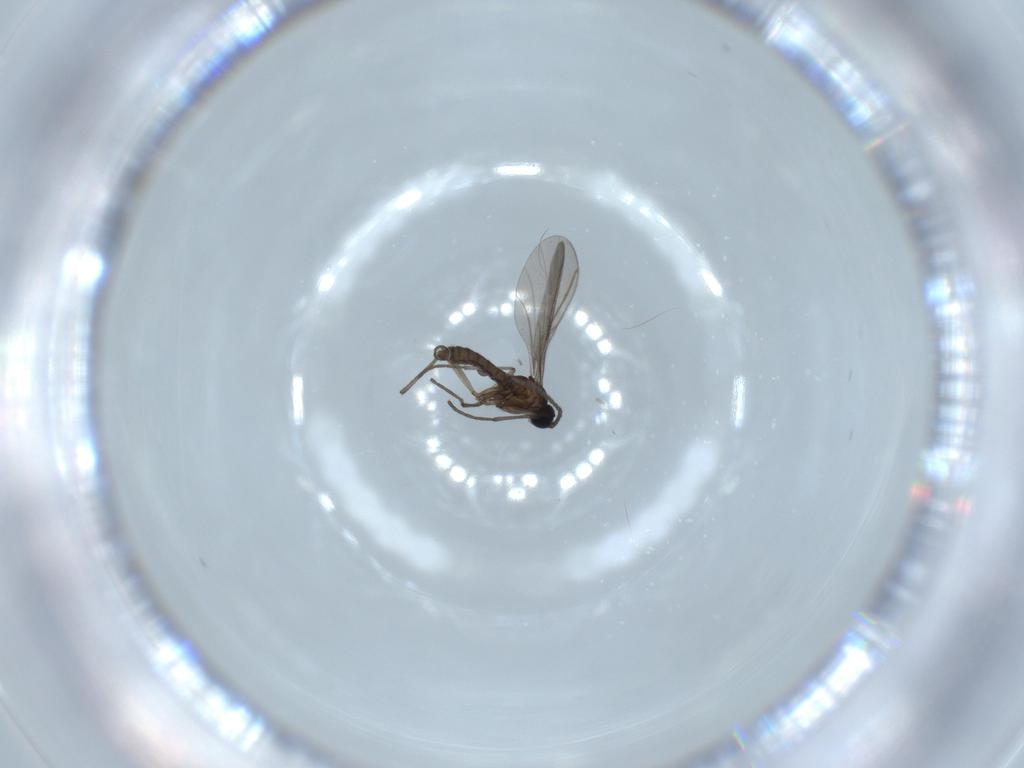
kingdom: Animalia
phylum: Arthropoda
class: Insecta
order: Diptera
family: Sciaridae
